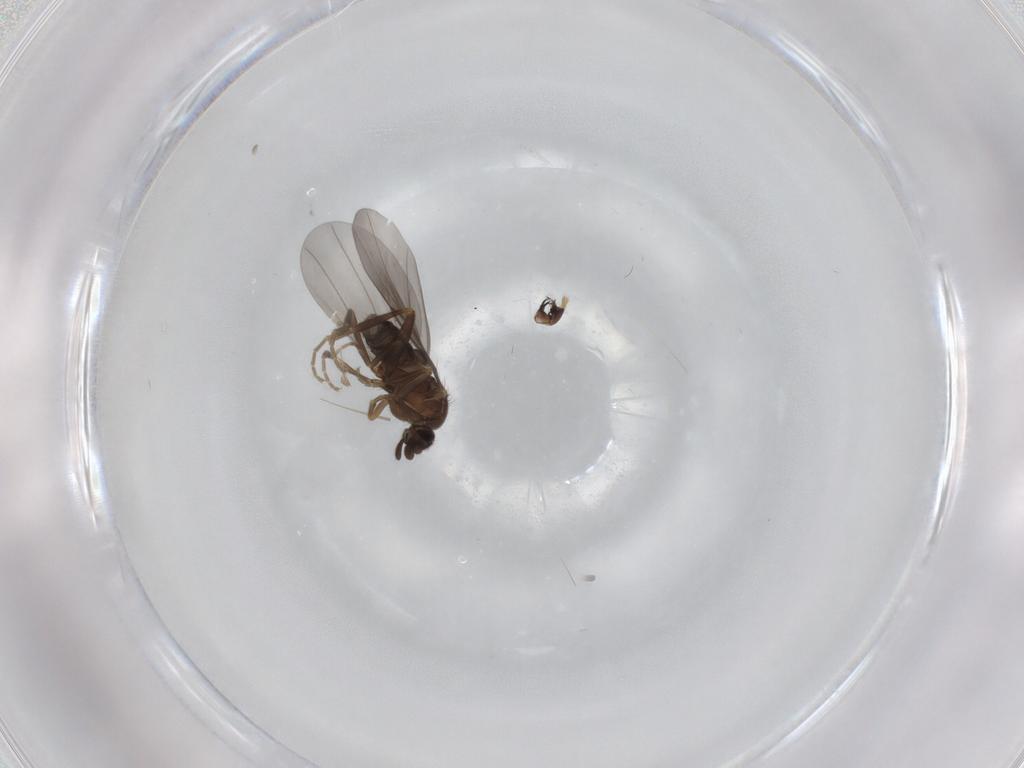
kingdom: Animalia
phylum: Arthropoda
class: Insecta
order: Diptera
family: Phoridae
